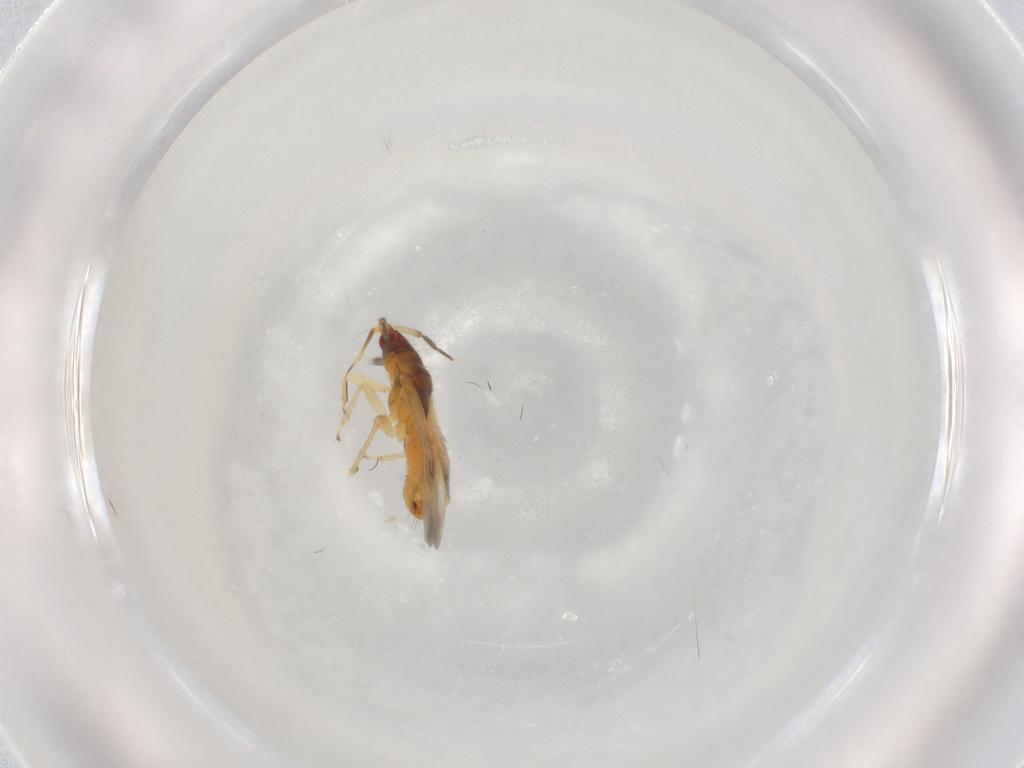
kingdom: Animalia
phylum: Arthropoda
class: Insecta
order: Hemiptera
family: Anthocoridae
